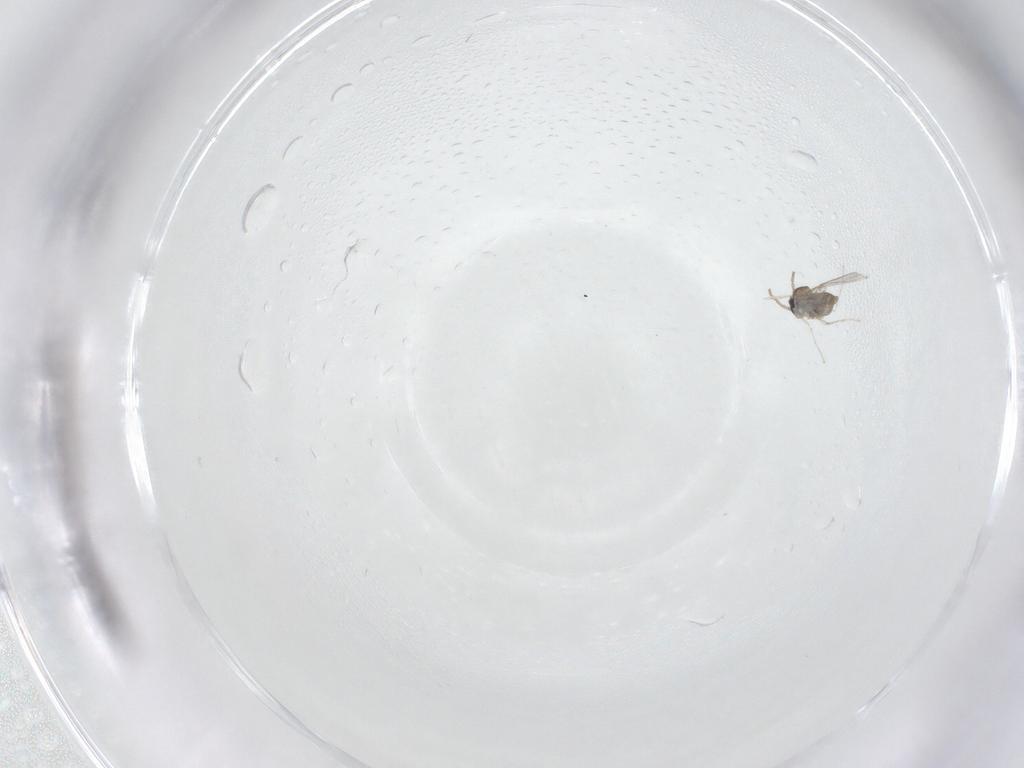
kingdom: Animalia
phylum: Arthropoda
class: Insecta
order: Diptera
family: Cecidomyiidae
